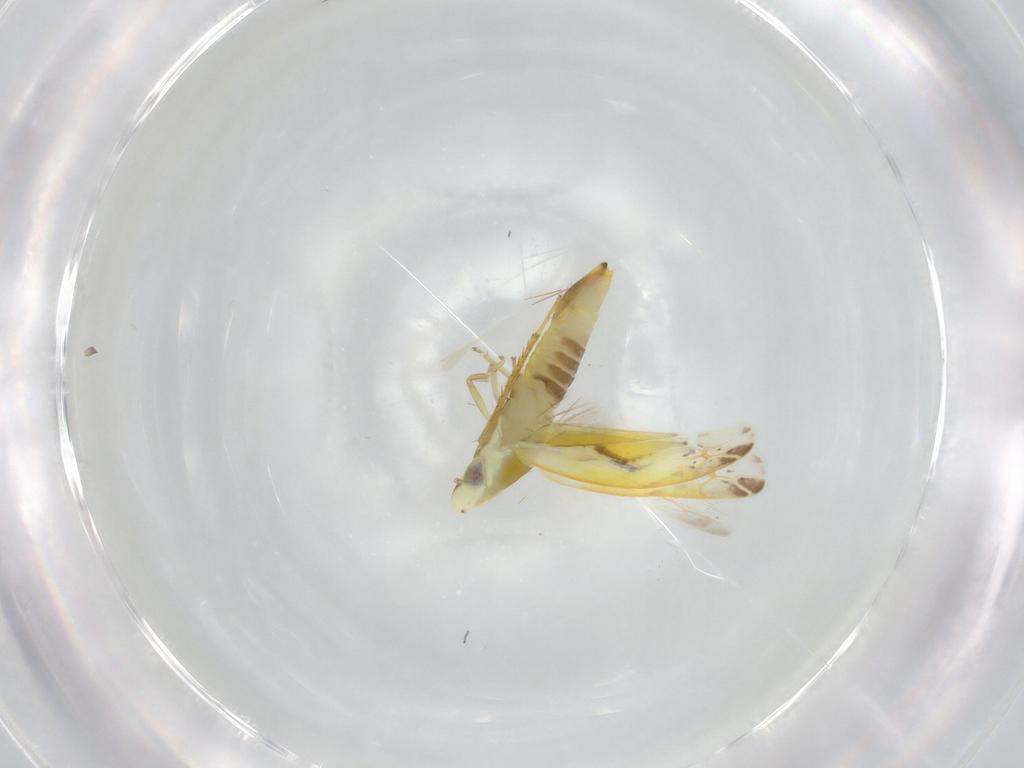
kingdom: Animalia
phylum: Arthropoda
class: Insecta
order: Hemiptera
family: Cicadellidae
